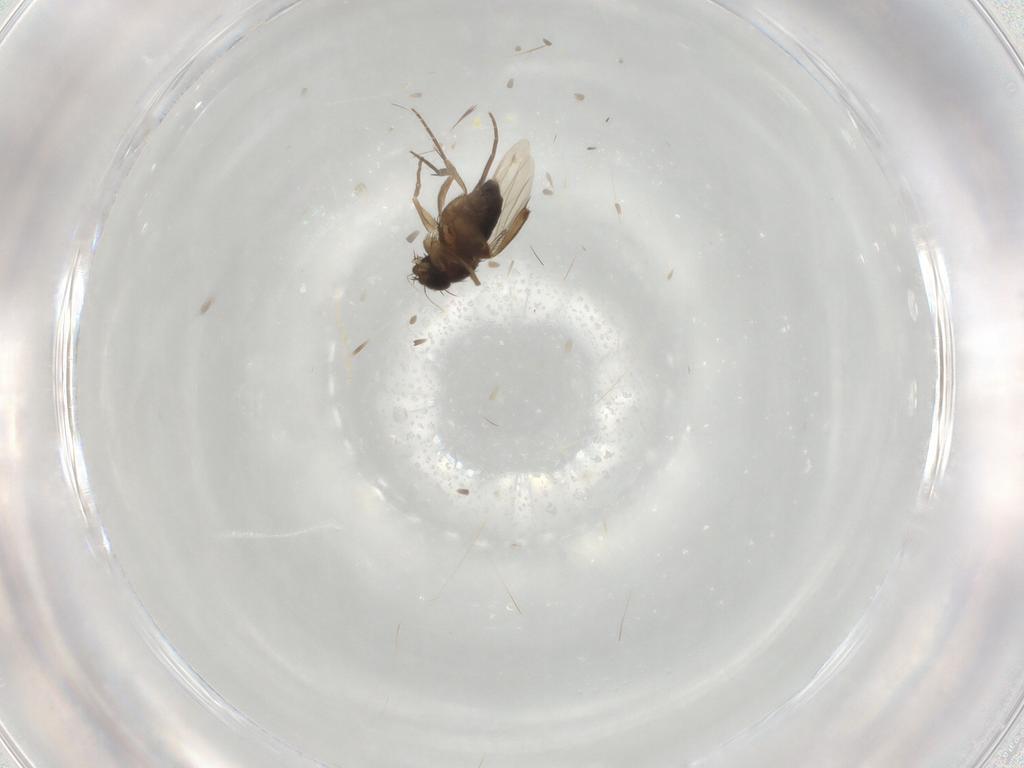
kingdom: Animalia
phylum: Arthropoda
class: Insecta
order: Diptera
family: Phoridae
